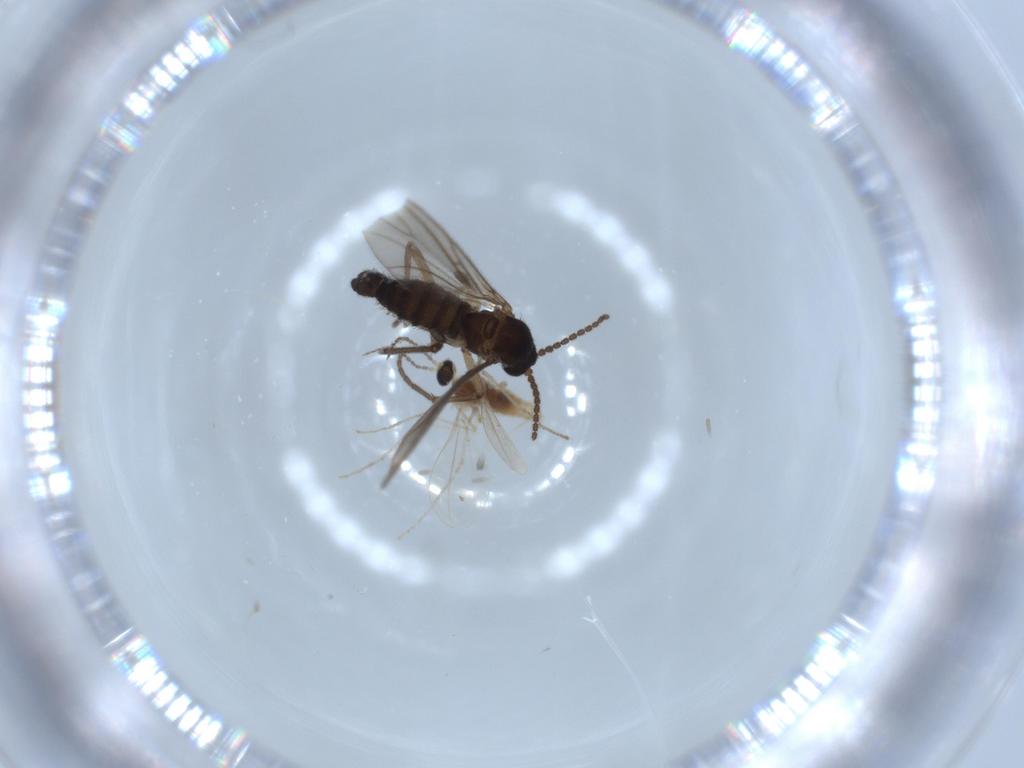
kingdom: Animalia
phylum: Arthropoda
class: Insecta
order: Diptera
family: Sciaridae
